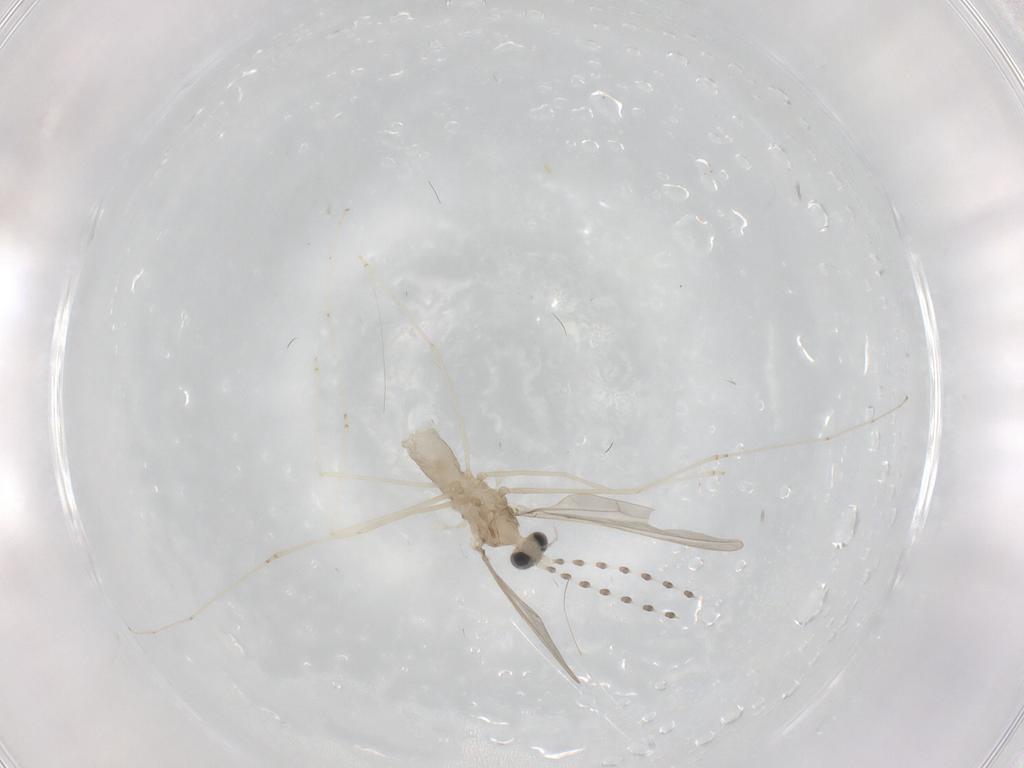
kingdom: Animalia
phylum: Arthropoda
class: Insecta
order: Diptera
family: Cecidomyiidae
